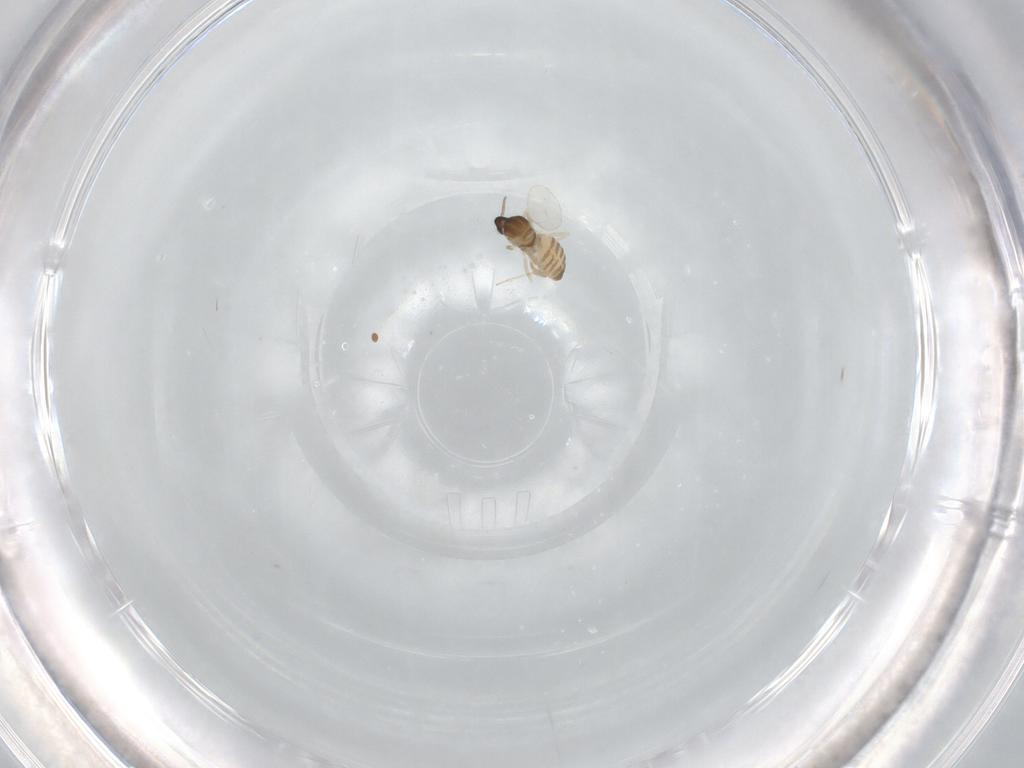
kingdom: Animalia
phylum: Arthropoda
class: Insecta
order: Diptera
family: Cecidomyiidae
